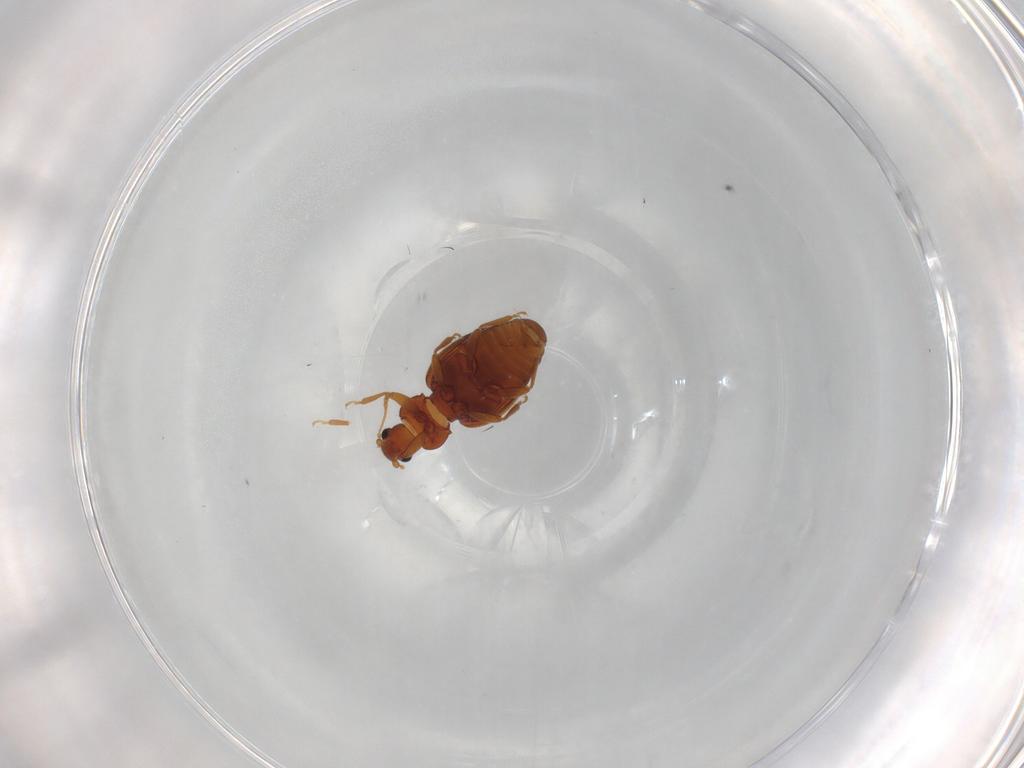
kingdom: Animalia
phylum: Arthropoda
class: Insecta
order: Coleoptera
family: Latridiidae
